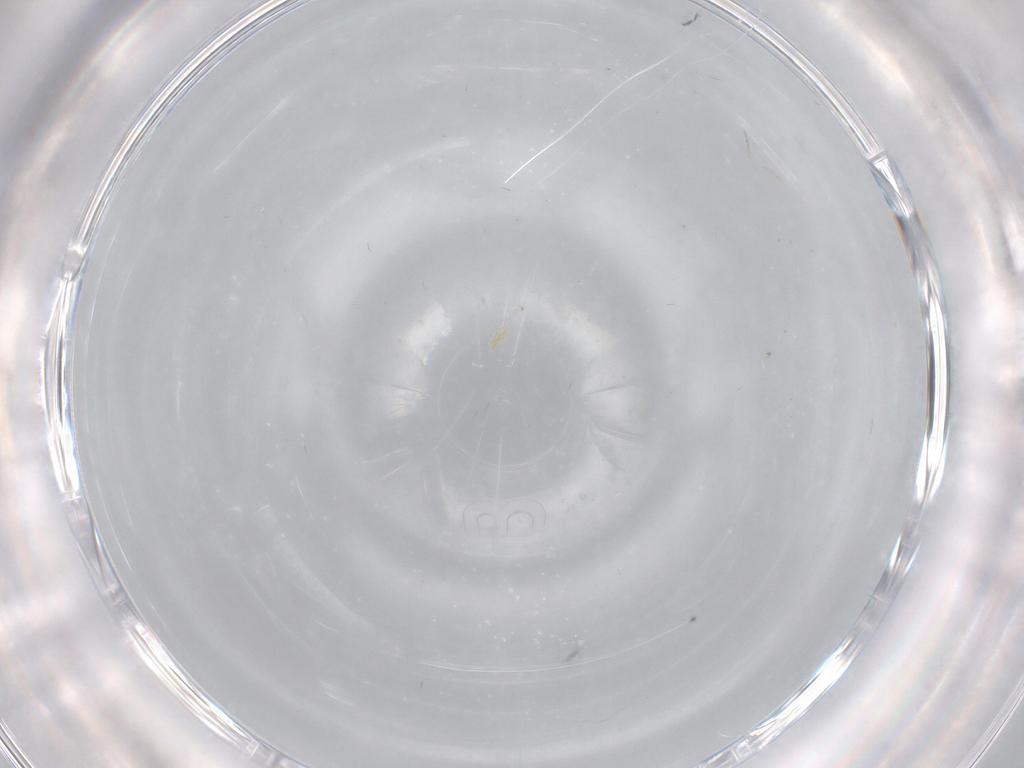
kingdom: Animalia
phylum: Arthropoda
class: Insecta
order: Diptera
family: Cecidomyiidae
